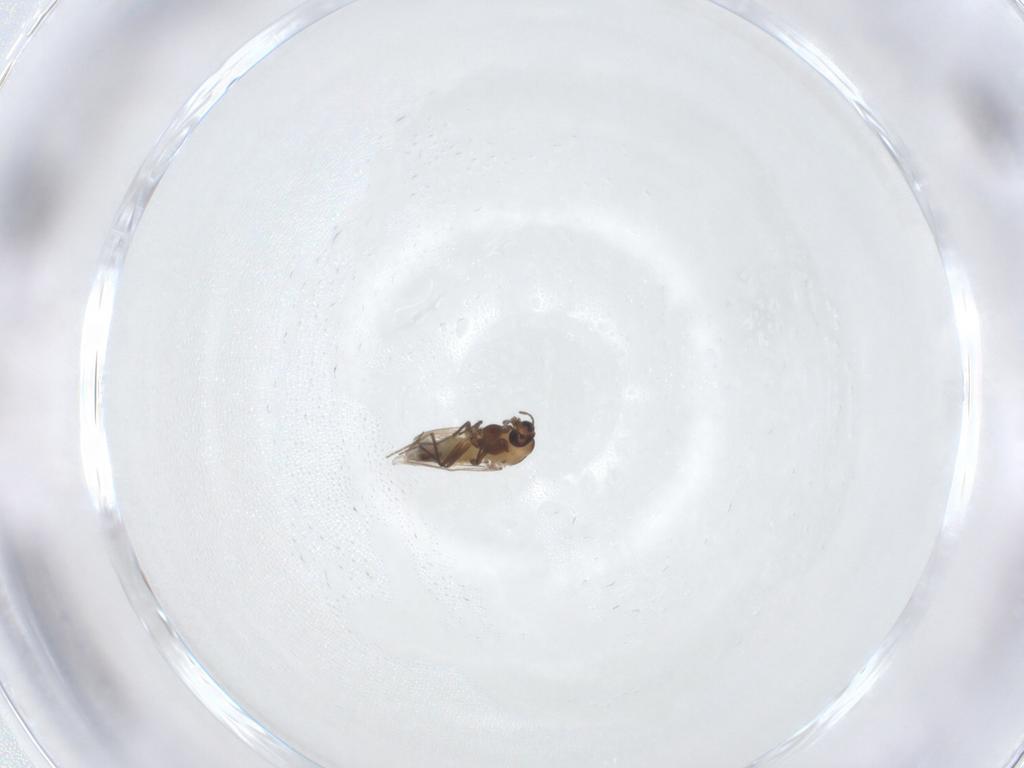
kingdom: Animalia
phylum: Arthropoda
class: Insecta
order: Diptera
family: Chironomidae
